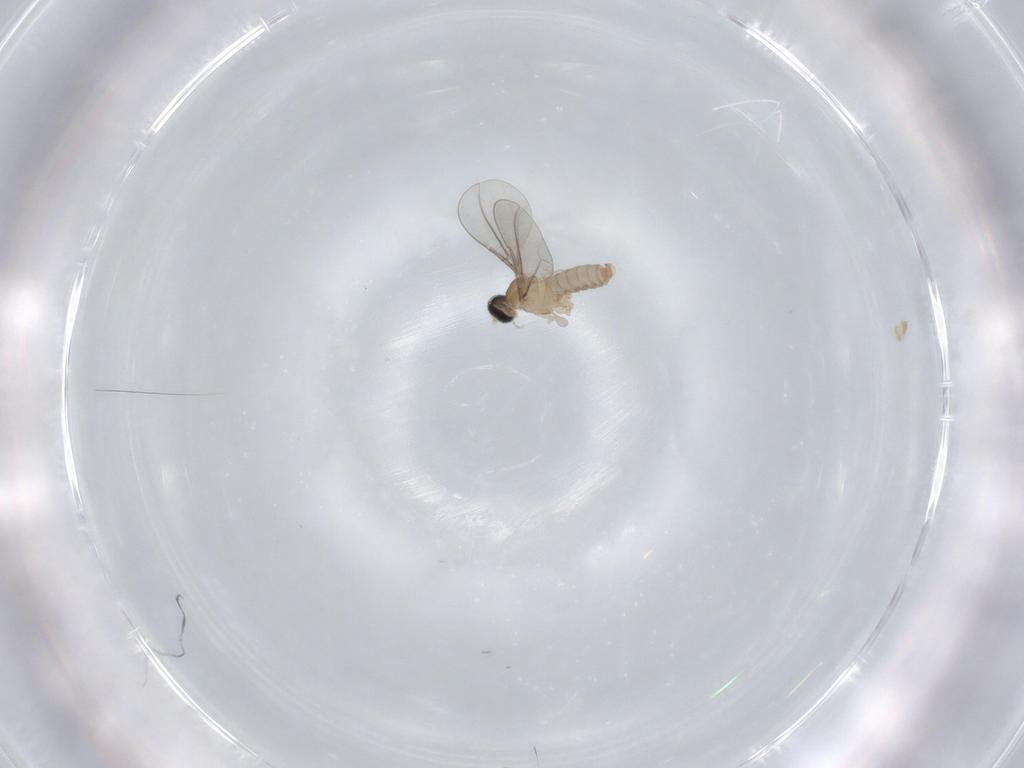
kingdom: Animalia
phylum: Arthropoda
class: Insecta
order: Diptera
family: Cecidomyiidae
